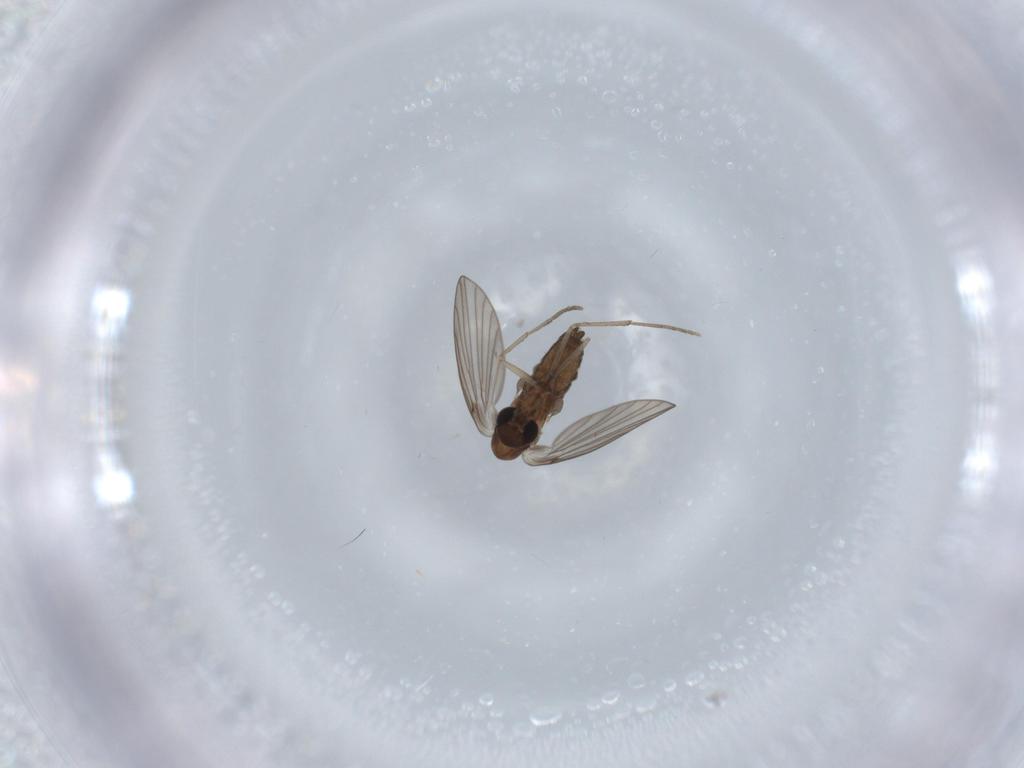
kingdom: Animalia
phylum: Arthropoda
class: Insecta
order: Diptera
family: Psychodidae
